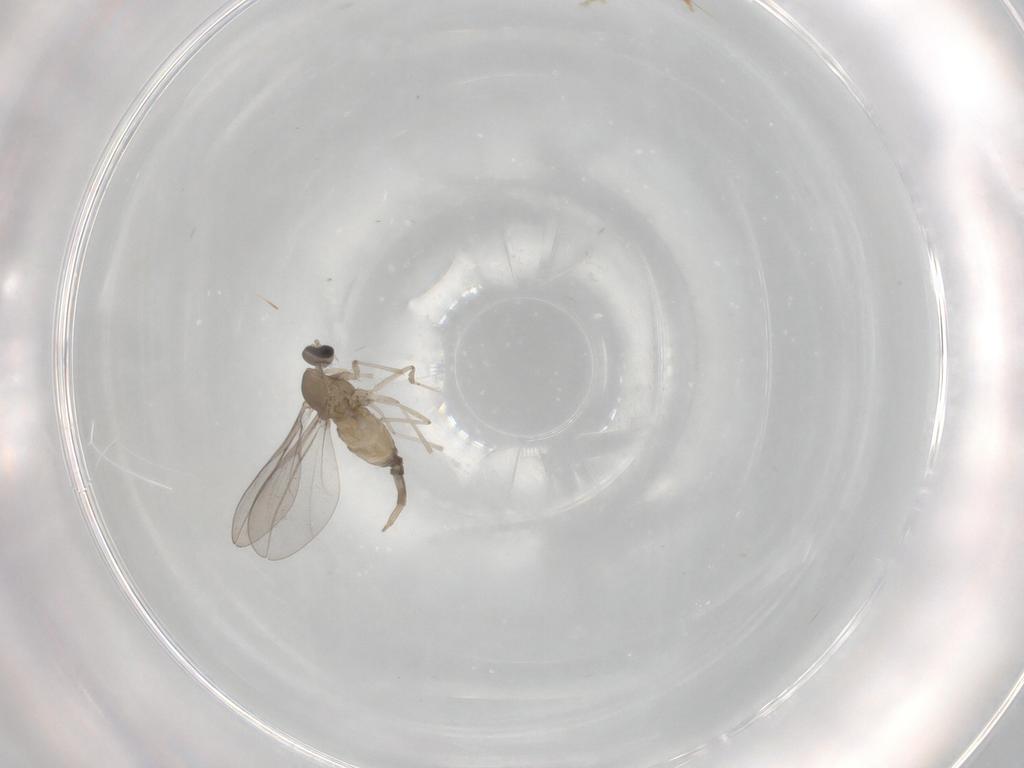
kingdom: Animalia
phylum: Arthropoda
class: Insecta
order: Diptera
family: Cecidomyiidae
